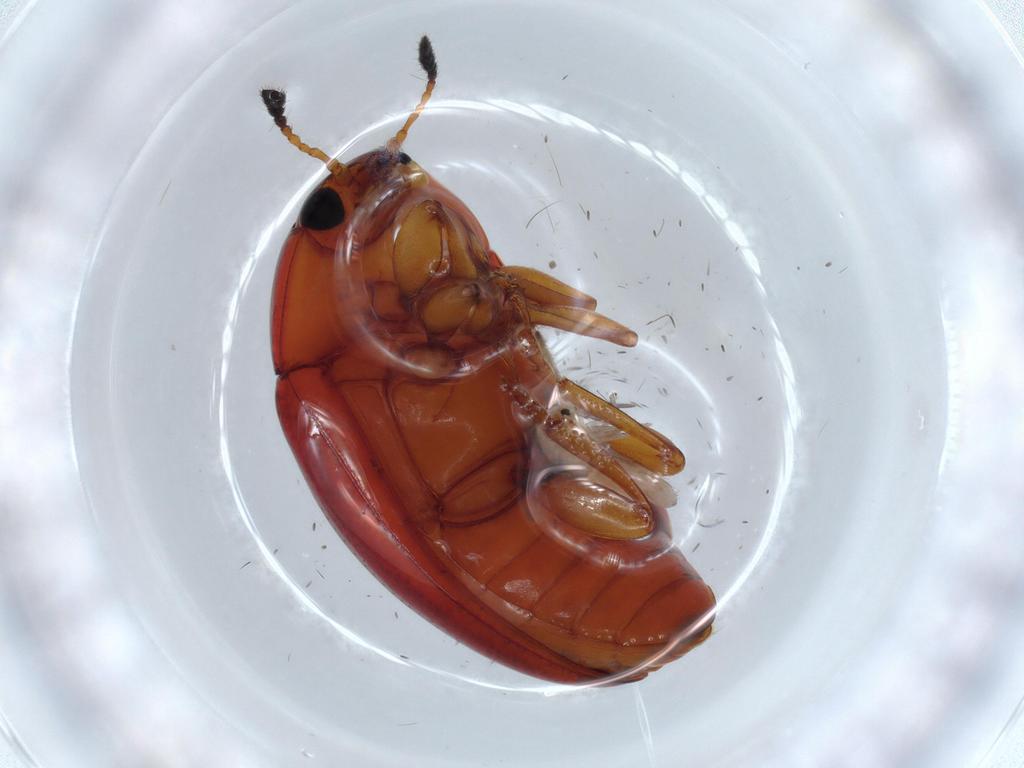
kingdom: Animalia
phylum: Arthropoda
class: Insecta
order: Coleoptera
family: Erotylidae
